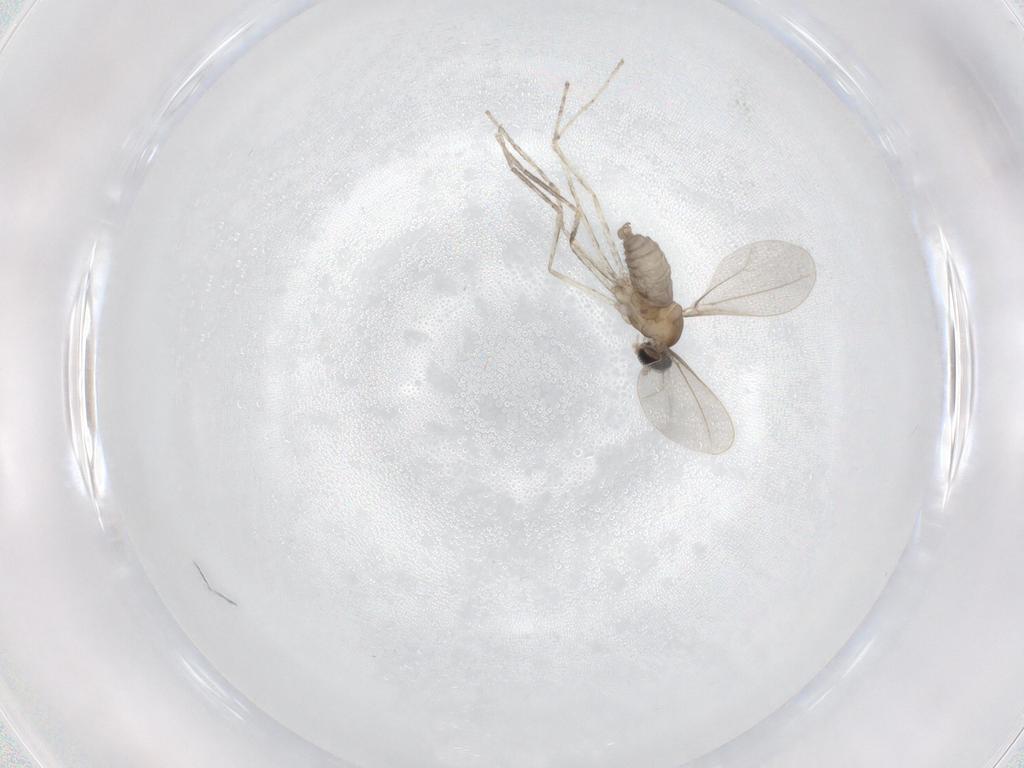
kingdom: Animalia
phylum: Arthropoda
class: Insecta
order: Diptera
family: Cecidomyiidae
